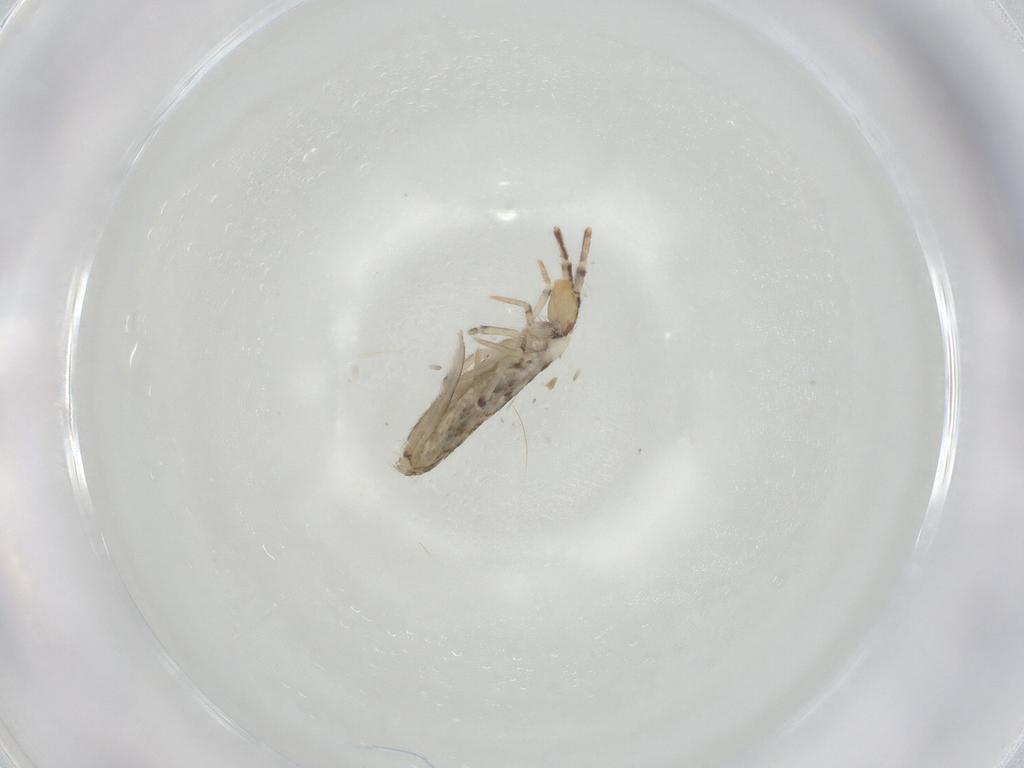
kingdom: Animalia
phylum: Arthropoda
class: Collembola
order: Entomobryomorpha
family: Entomobryidae
